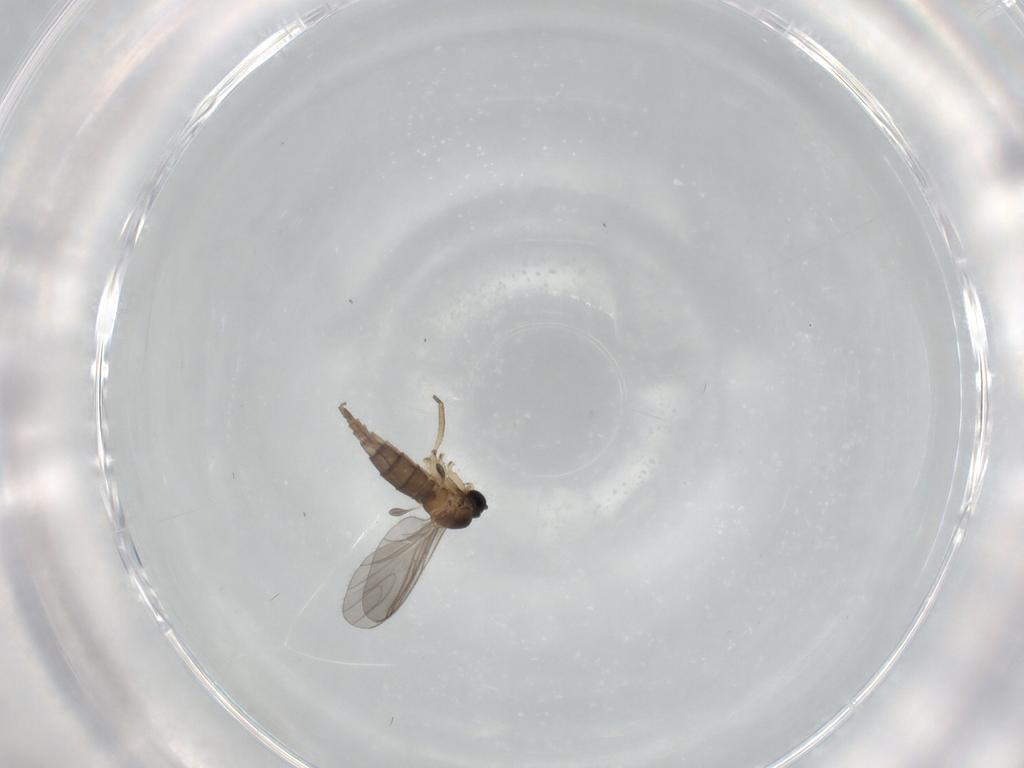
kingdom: Animalia
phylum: Arthropoda
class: Insecta
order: Diptera
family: Sciaridae
